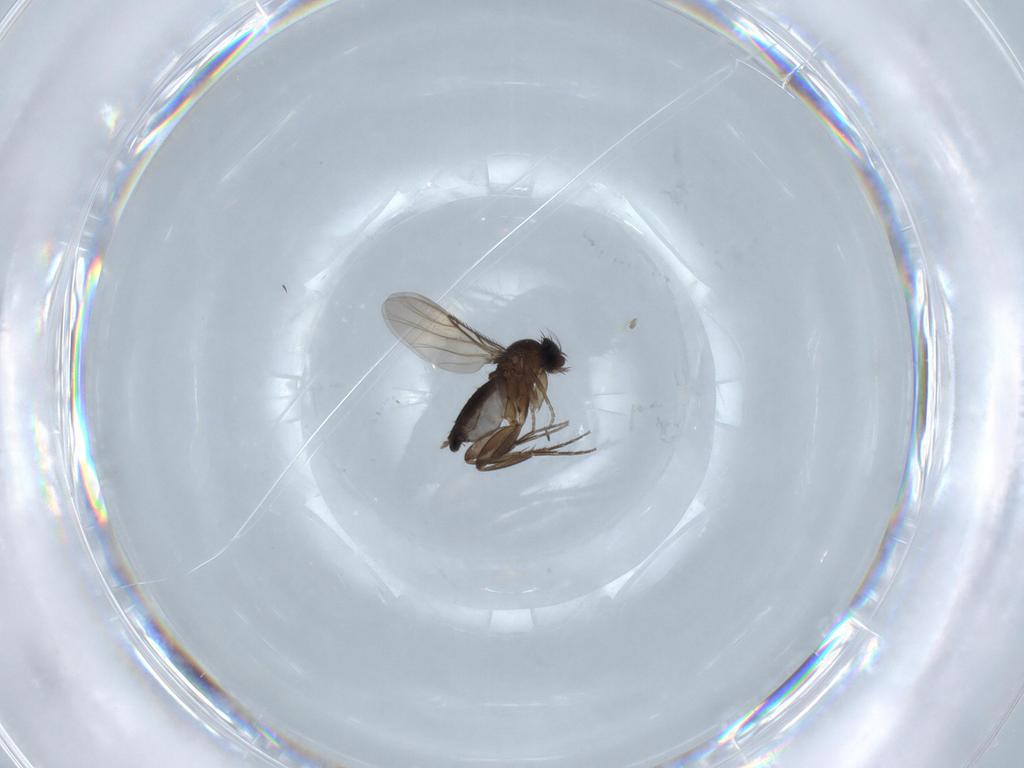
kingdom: Animalia
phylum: Arthropoda
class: Insecta
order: Diptera
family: Phoridae
